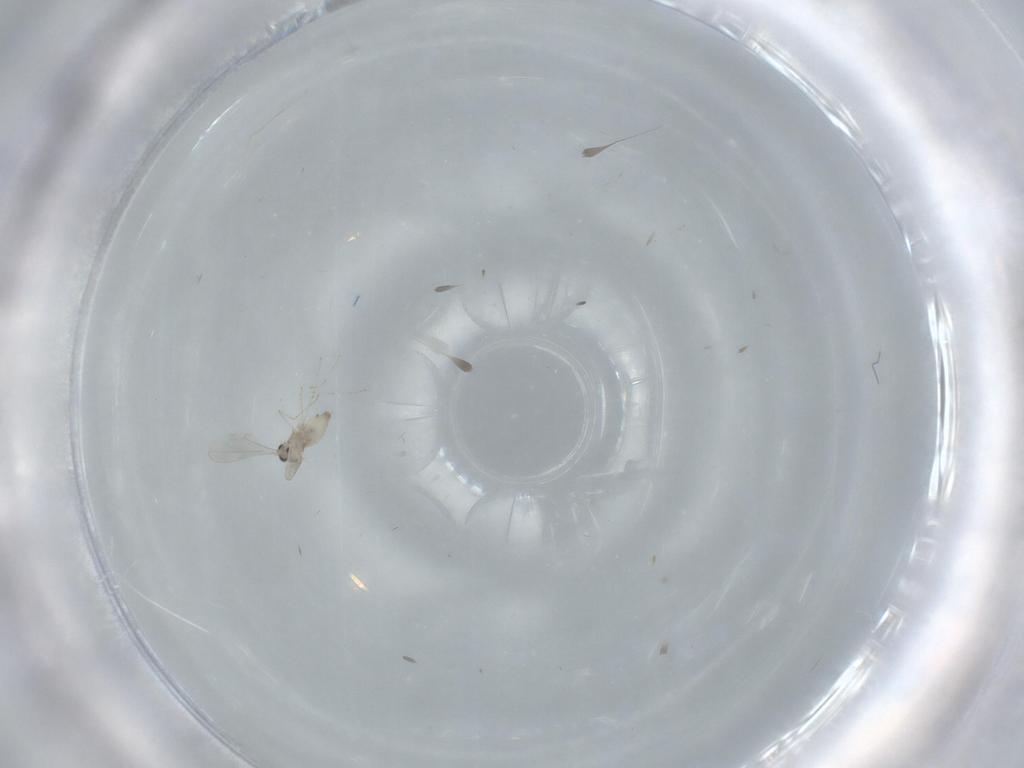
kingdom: Animalia
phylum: Arthropoda
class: Insecta
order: Diptera
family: Cecidomyiidae
